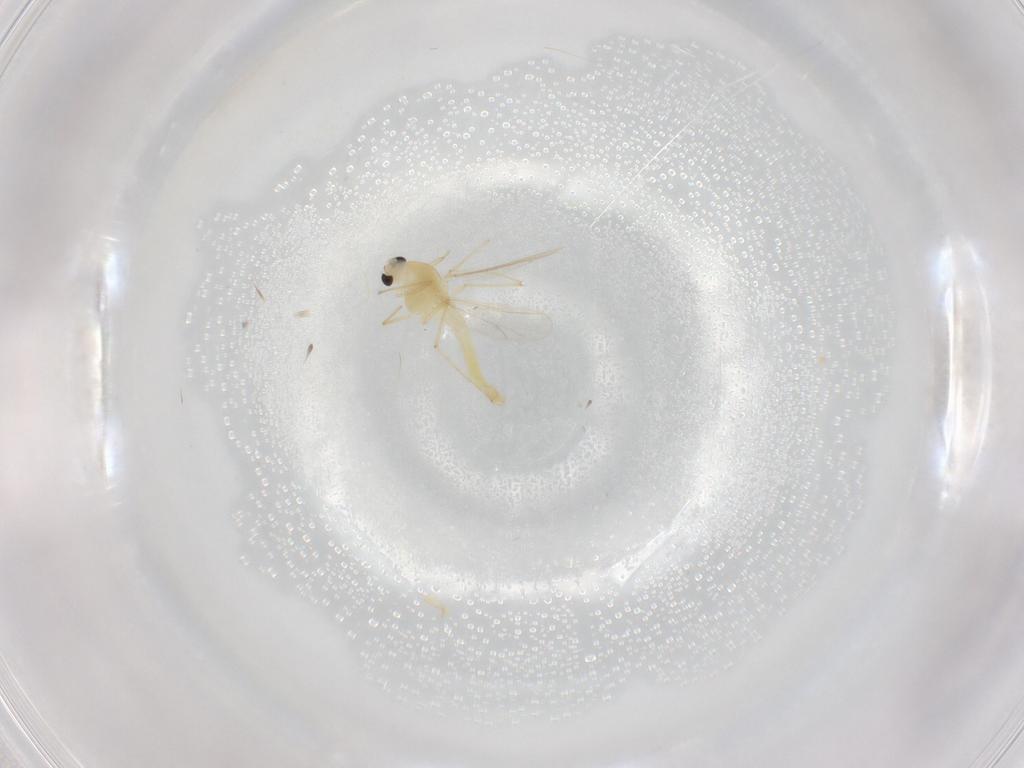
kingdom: Animalia
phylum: Arthropoda
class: Insecta
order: Diptera
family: Chironomidae
